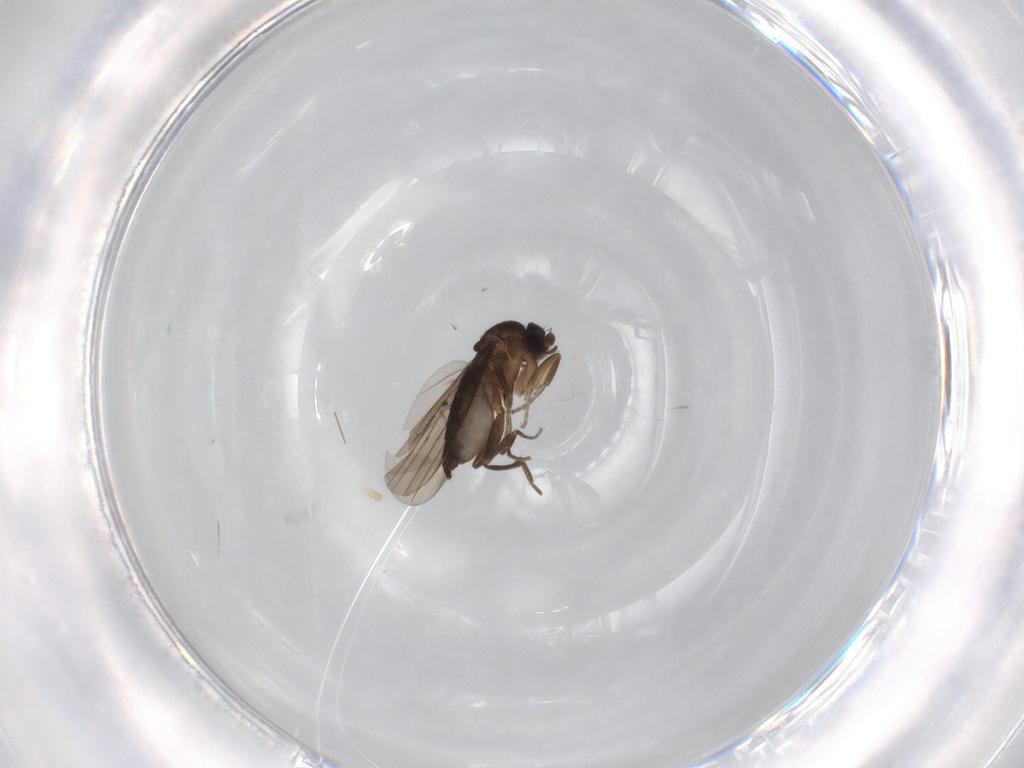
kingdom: Animalia
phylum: Arthropoda
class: Insecta
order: Diptera
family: Phoridae
